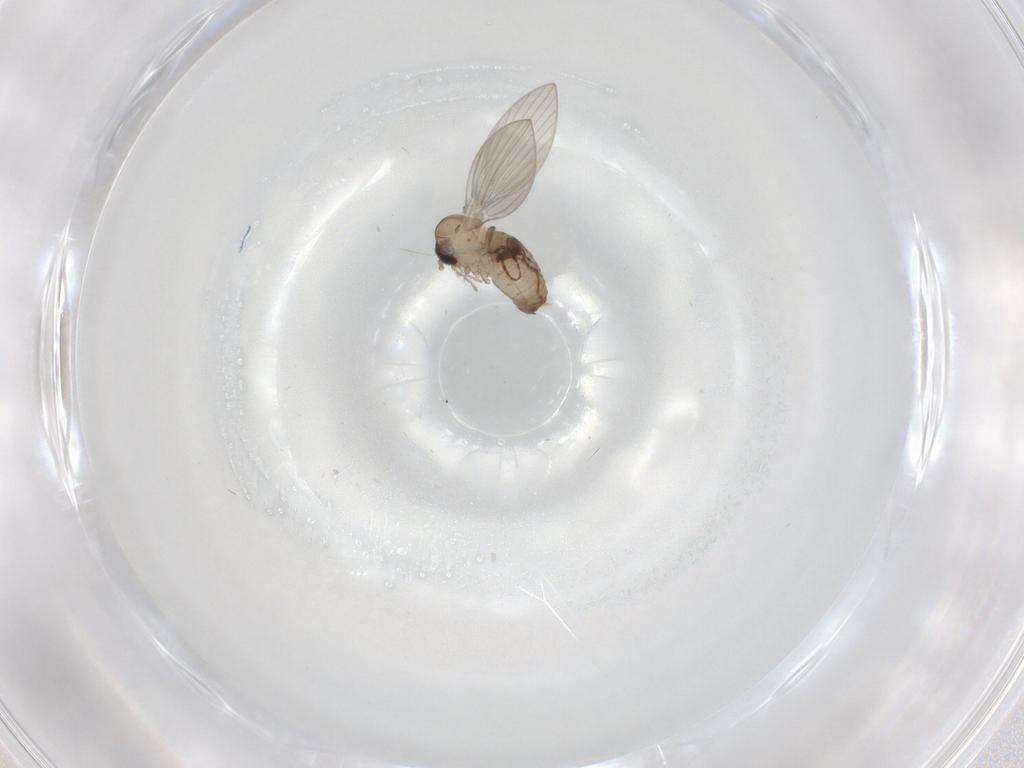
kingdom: Animalia
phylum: Arthropoda
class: Insecta
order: Diptera
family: Psychodidae
